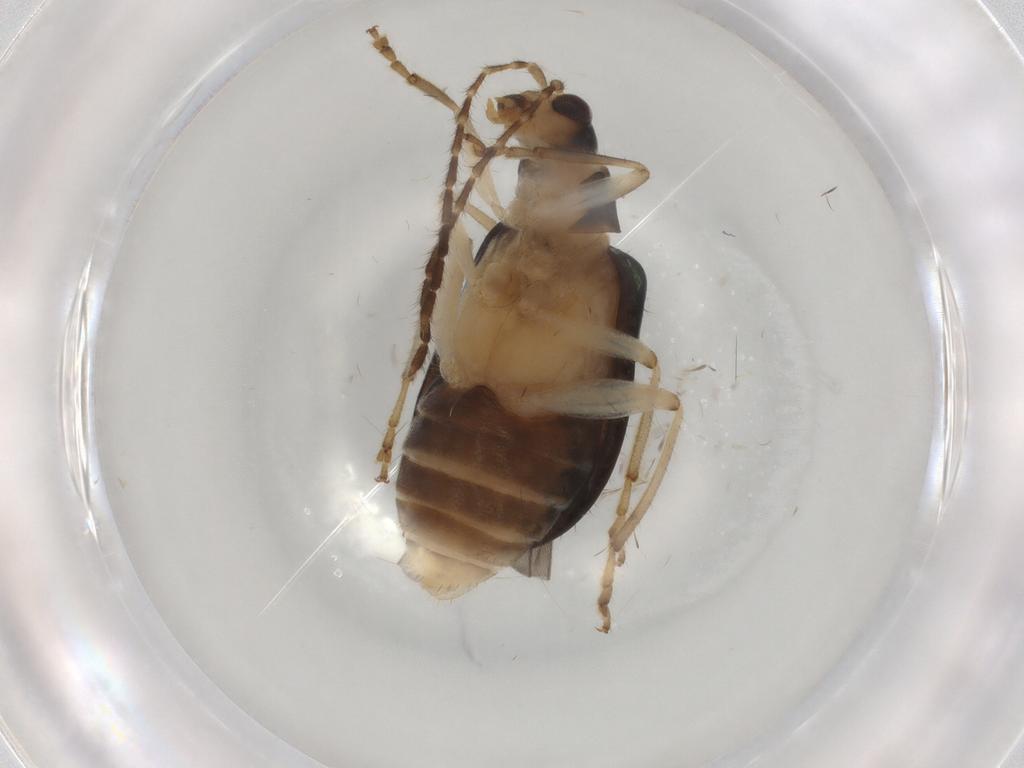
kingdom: Animalia
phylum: Arthropoda
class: Insecta
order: Coleoptera
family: Chrysomelidae
